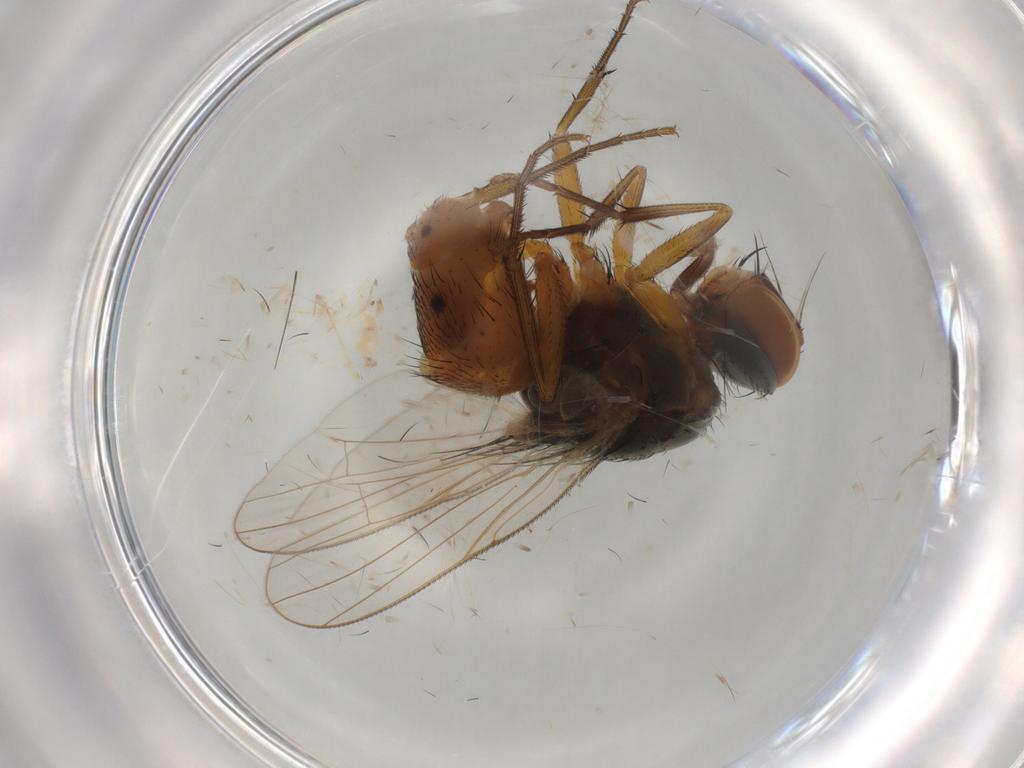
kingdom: Animalia
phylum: Arthropoda
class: Insecta
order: Diptera
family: Muscidae
